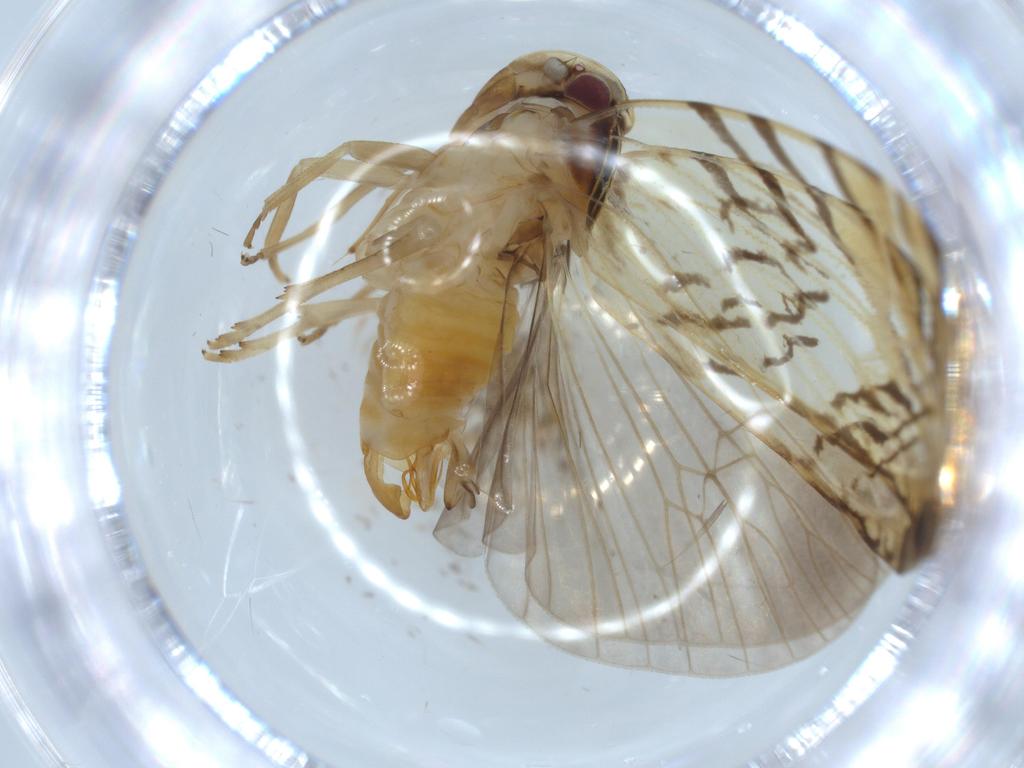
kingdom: Animalia
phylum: Arthropoda
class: Insecta
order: Hemiptera
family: Cixiidae
